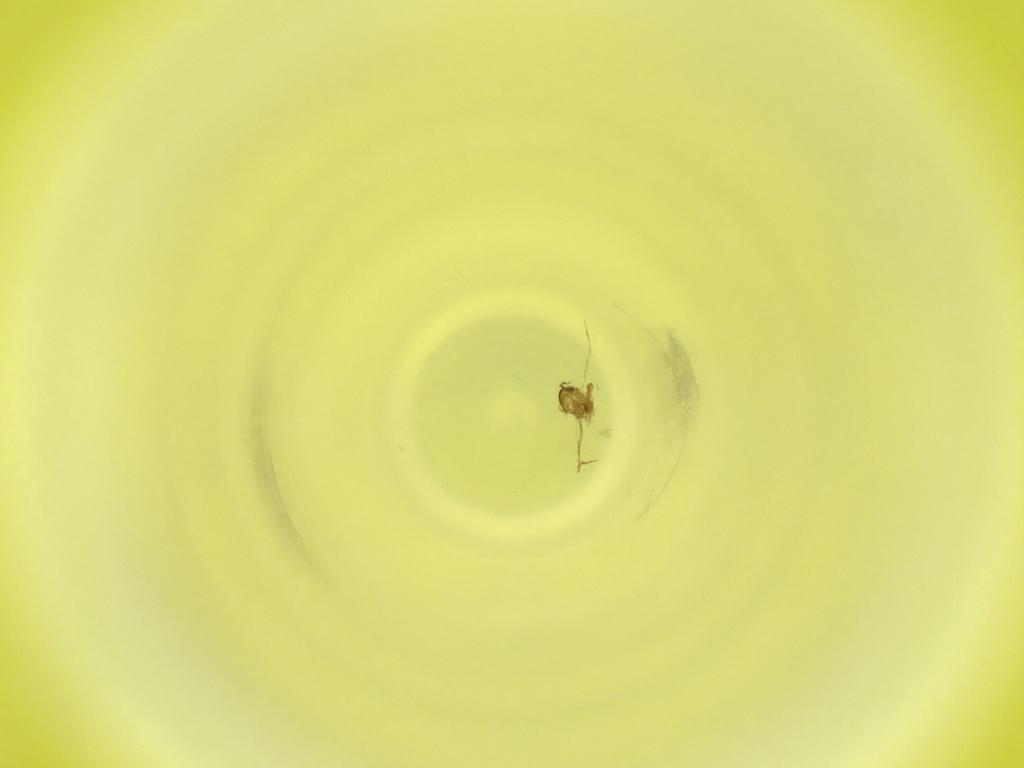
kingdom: Animalia
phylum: Arthropoda
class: Insecta
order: Diptera
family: Cecidomyiidae
